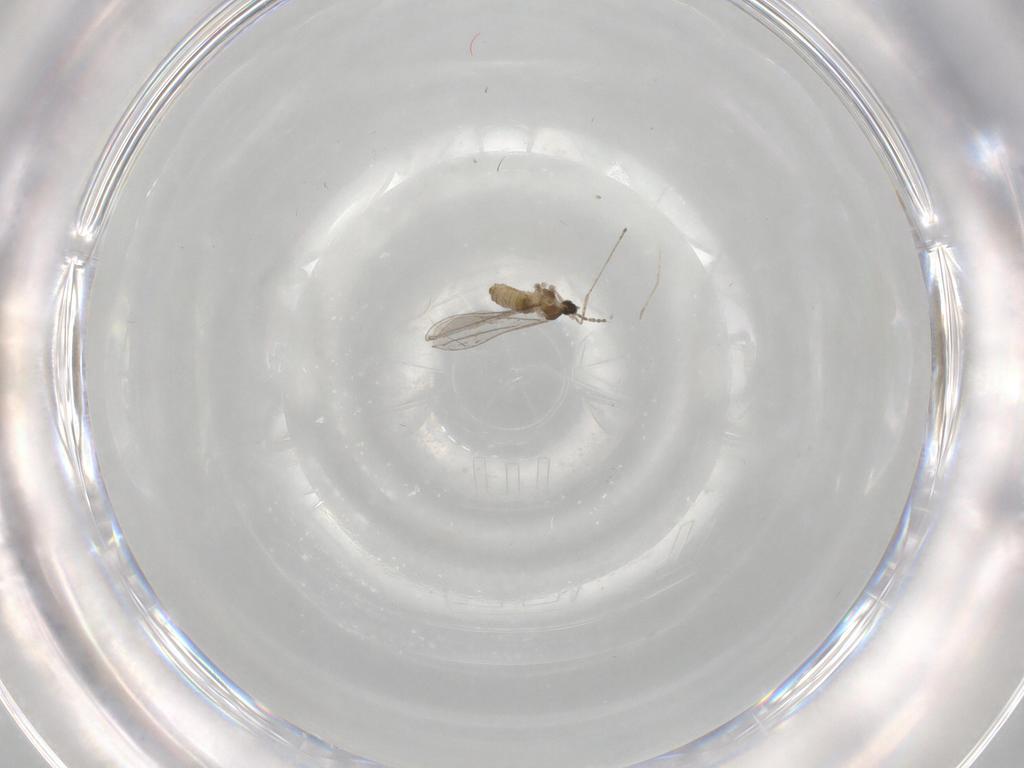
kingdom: Animalia
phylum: Arthropoda
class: Insecta
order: Diptera
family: Cecidomyiidae
